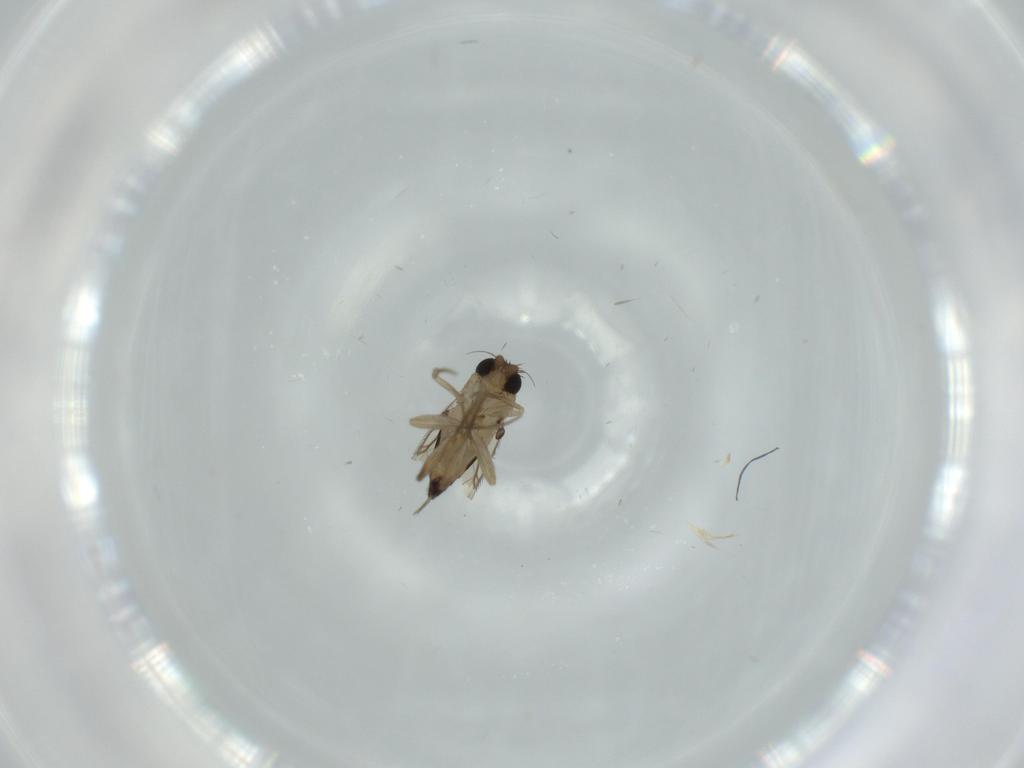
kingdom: Animalia
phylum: Arthropoda
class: Insecta
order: Diptera
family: Phoridae
